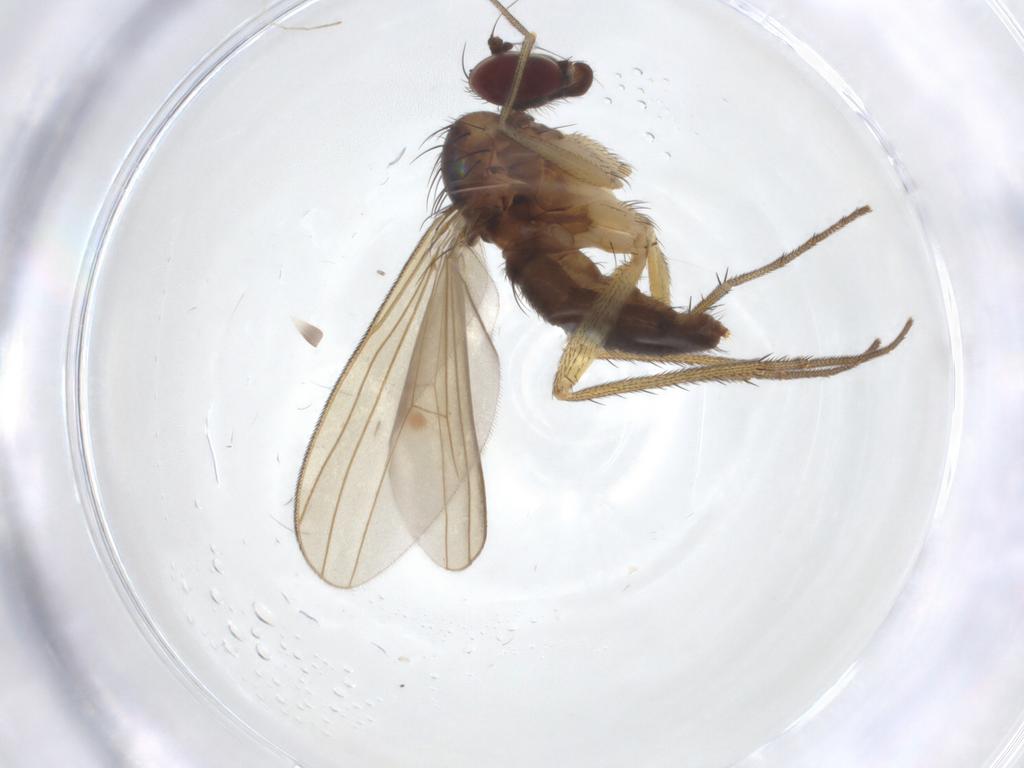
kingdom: Animalia
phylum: Arthropoda
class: Insecta
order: Diptera
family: Dolichopodidae
